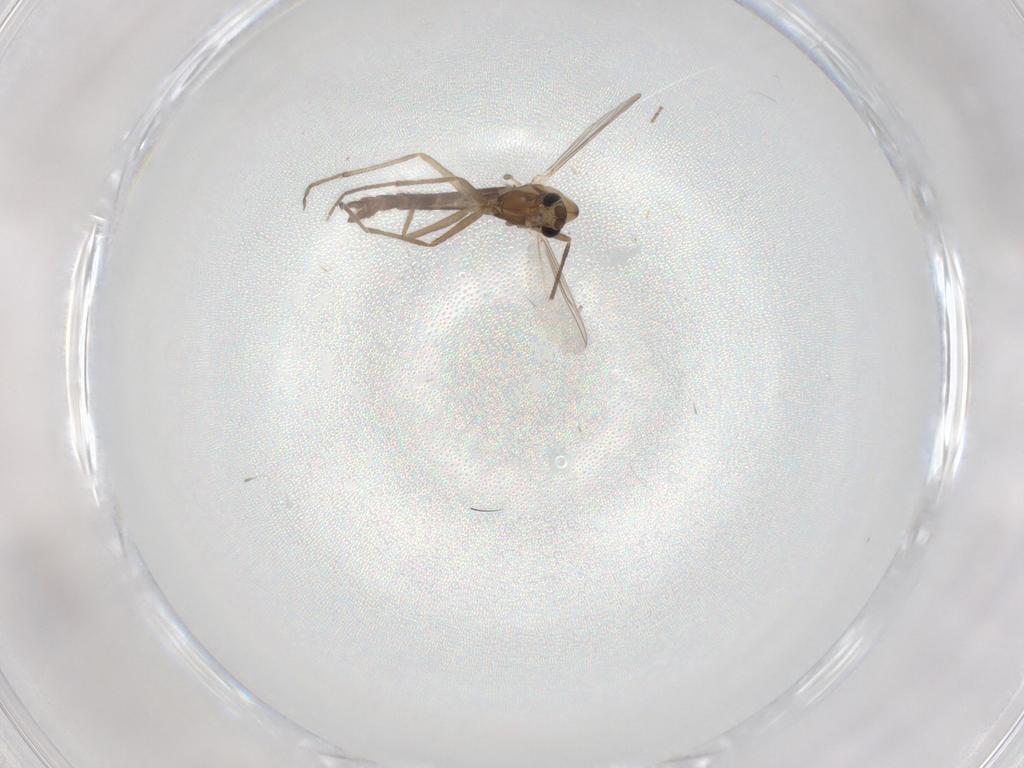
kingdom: Animalia
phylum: Arthropoda
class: Insecta
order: Diptera
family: Chironomidae
